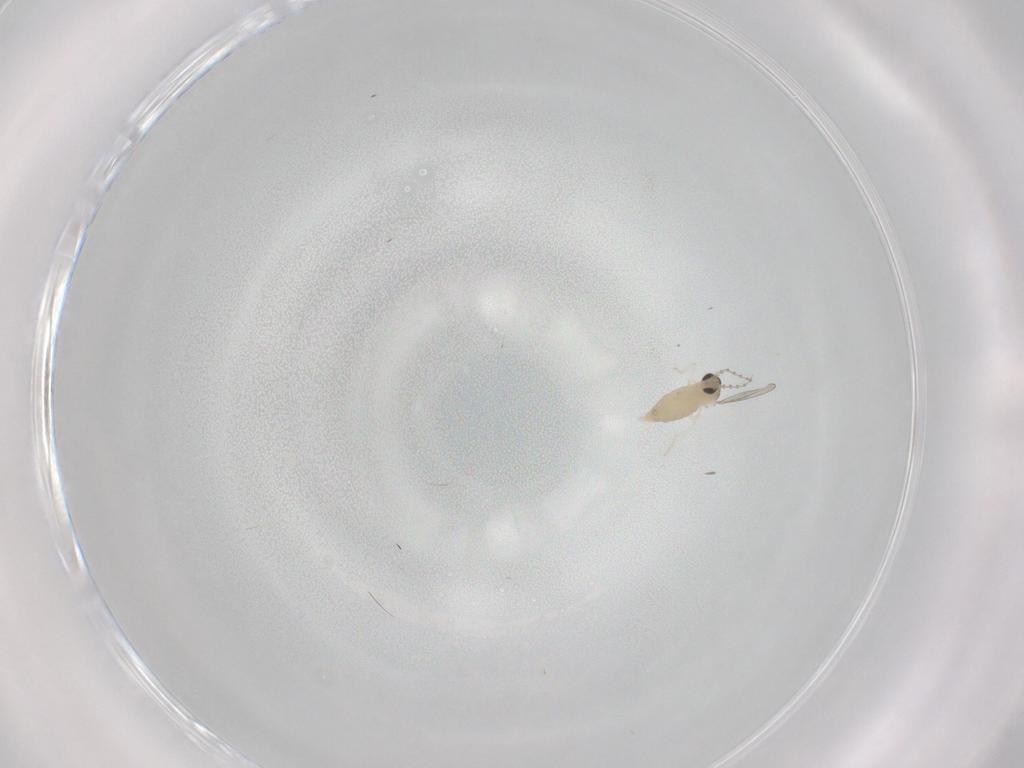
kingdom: Animalia
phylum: Arthropoda
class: Insecta
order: Diptera
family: Cecidomyiidae
